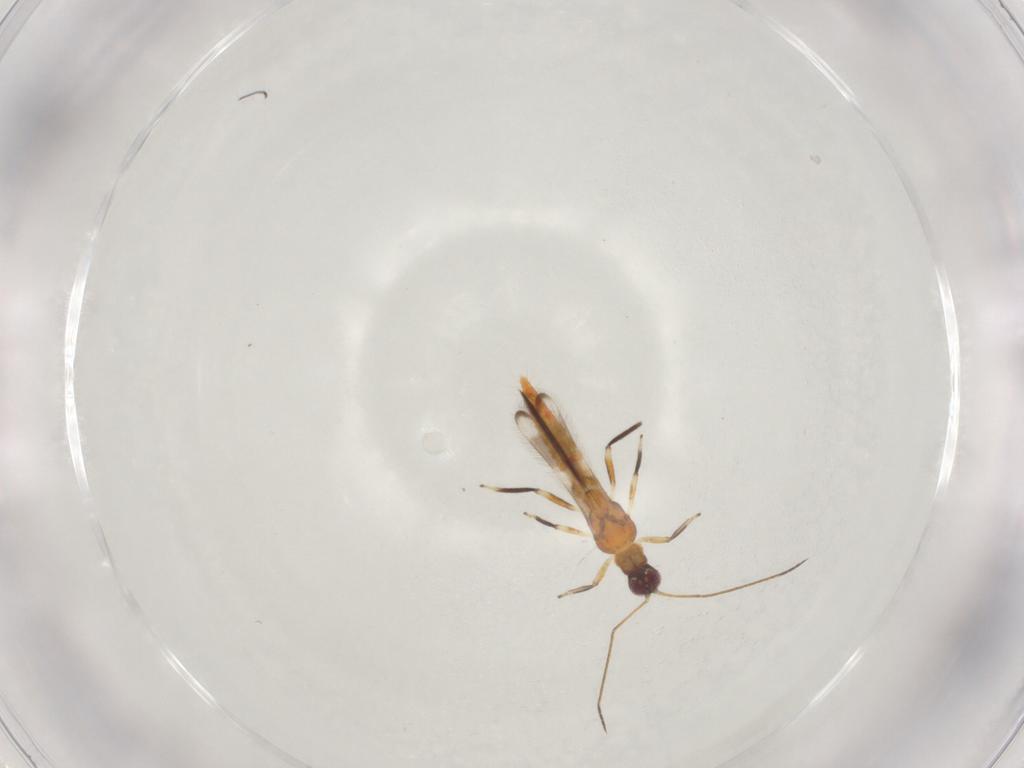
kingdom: Animalia
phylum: Arthropoda
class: Insecta
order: Thysanoptera
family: Aeolothripidae
